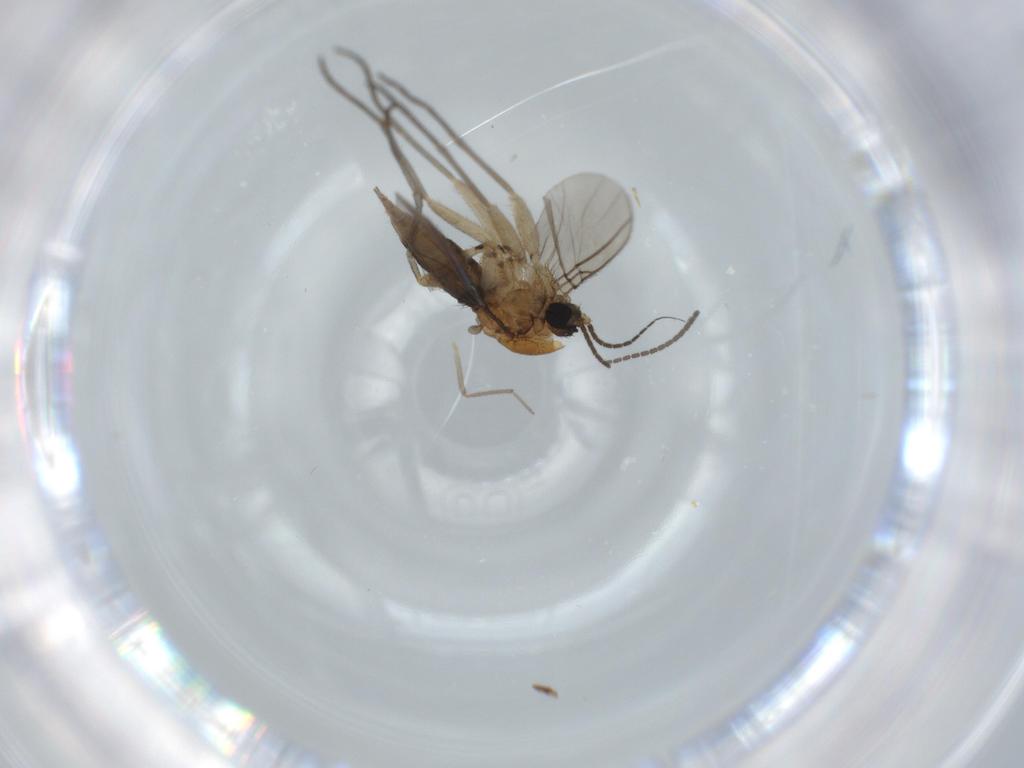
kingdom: Animalia
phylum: Arthropoda
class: Insecta
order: Diptera
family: Sciaridae
